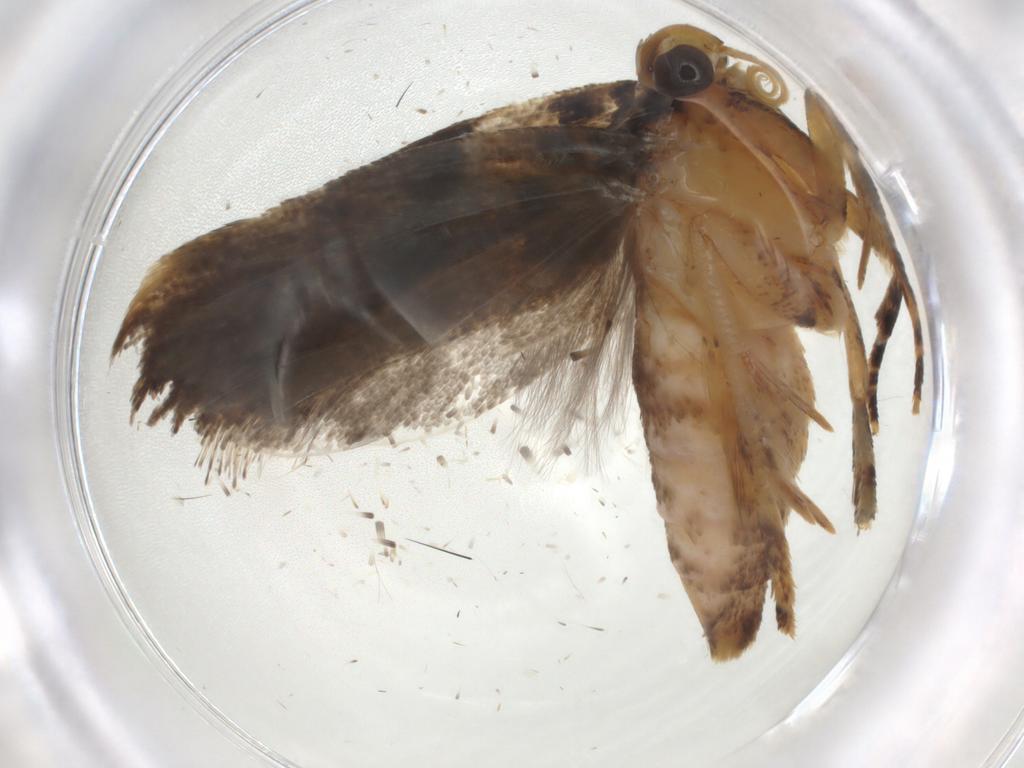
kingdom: Animalia
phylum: Arthropoda
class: Insecta
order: Lepidoptera
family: Gelechiidae
